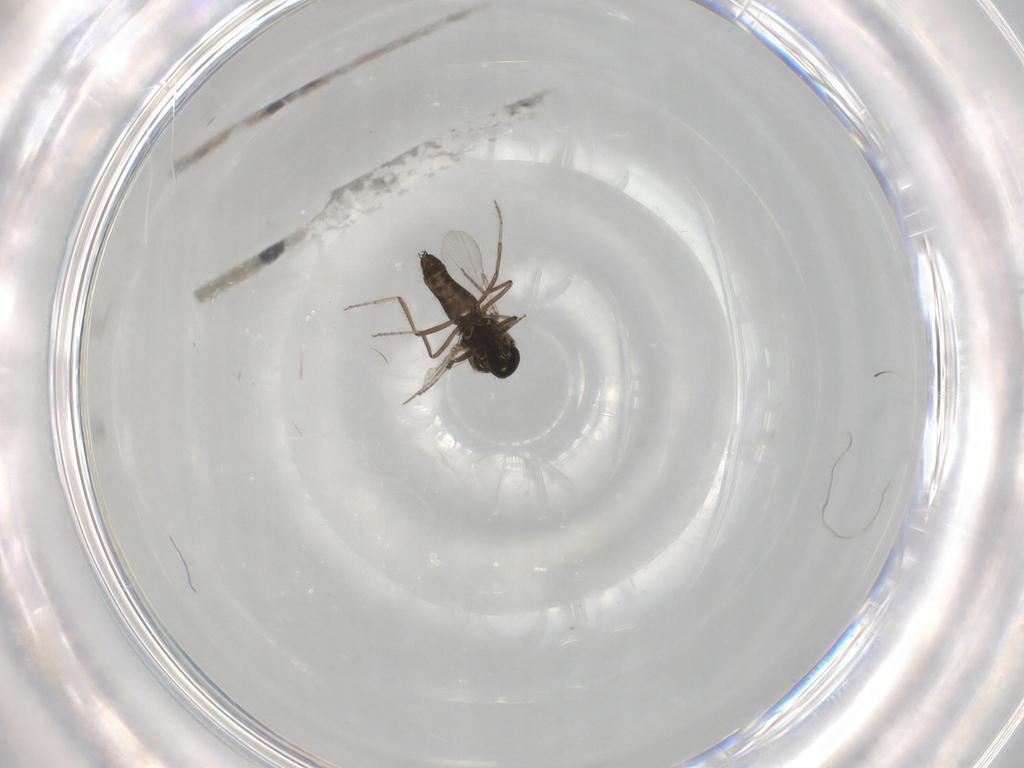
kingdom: Animalia
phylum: Arthropoda
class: Insecta
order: Diptera
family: Ceratopogonidae
